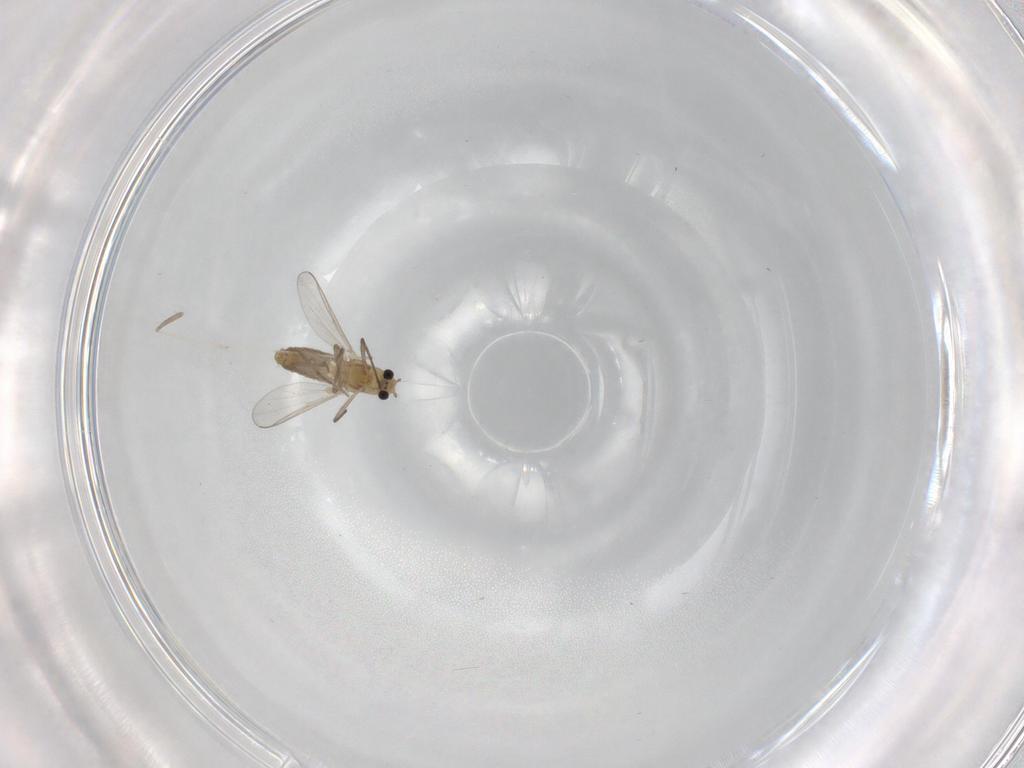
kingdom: Animalia
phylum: Arthropoda
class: Insecta
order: Diptera
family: Chironomidae
